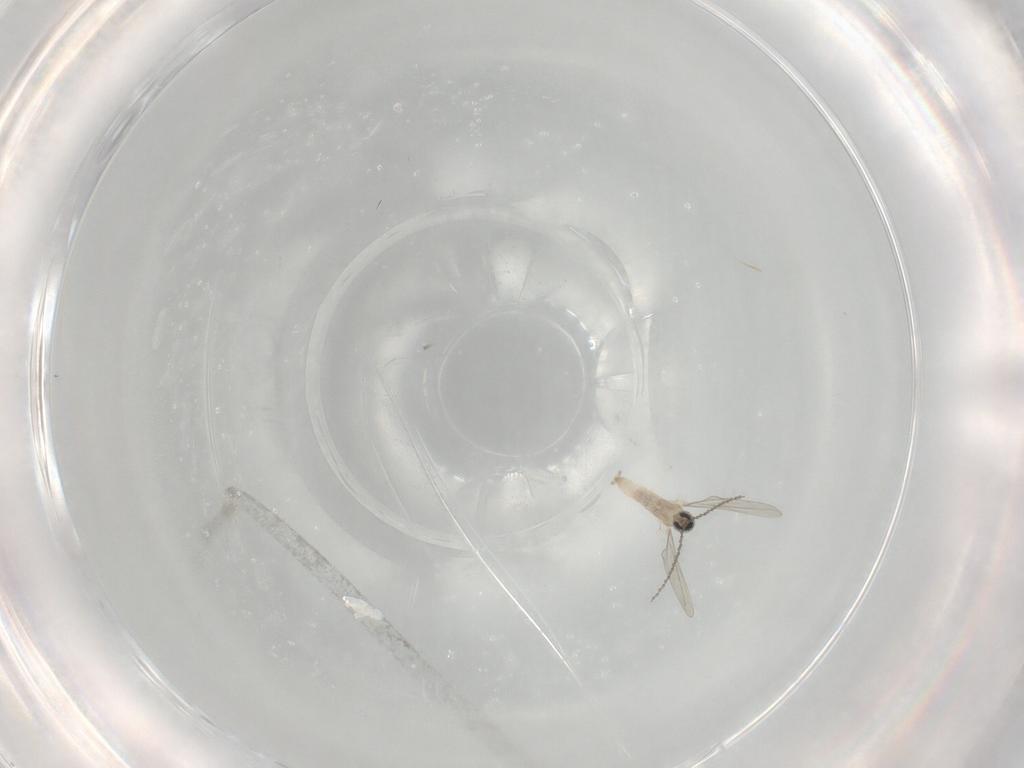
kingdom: Animalia
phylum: Arthropoda
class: Insecta
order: Diptera
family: Cecidomyiidae
